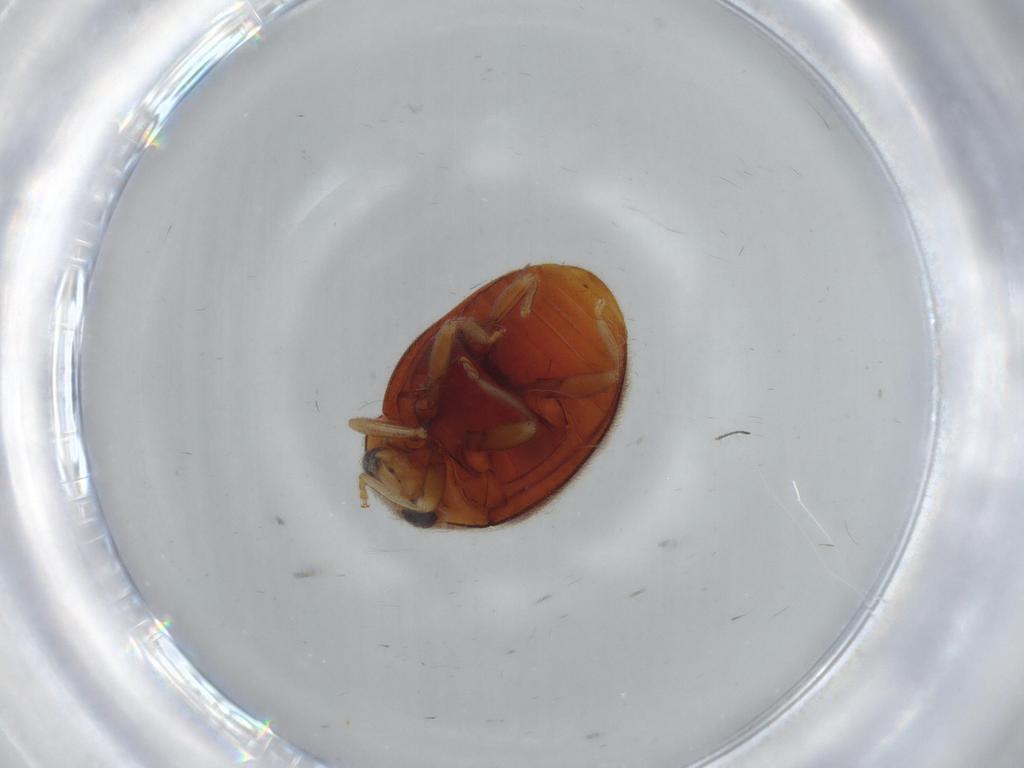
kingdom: Animalia
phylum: Arthropoda
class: Insecta
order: Coleoptera
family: Coccinellidae
